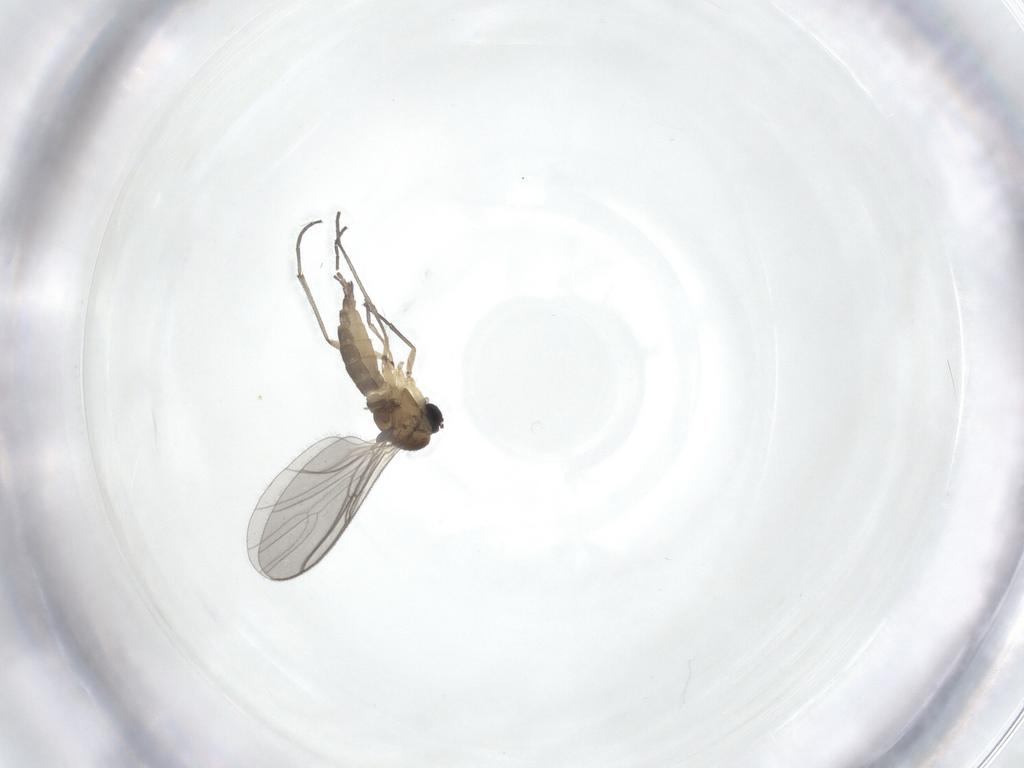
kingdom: Animalia
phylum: Arthropoda
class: Insecta
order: Diptera
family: Sciaridae
